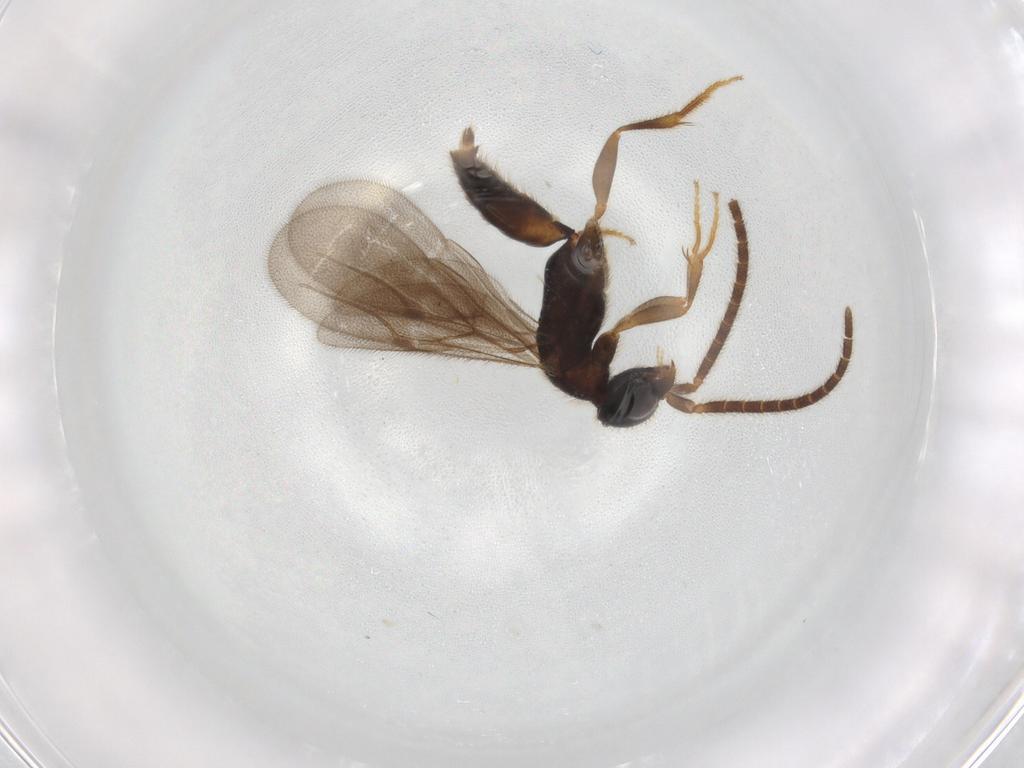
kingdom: Animalia
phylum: Arthropoda
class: Insecta
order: Hymenoptera
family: Bethylidae
